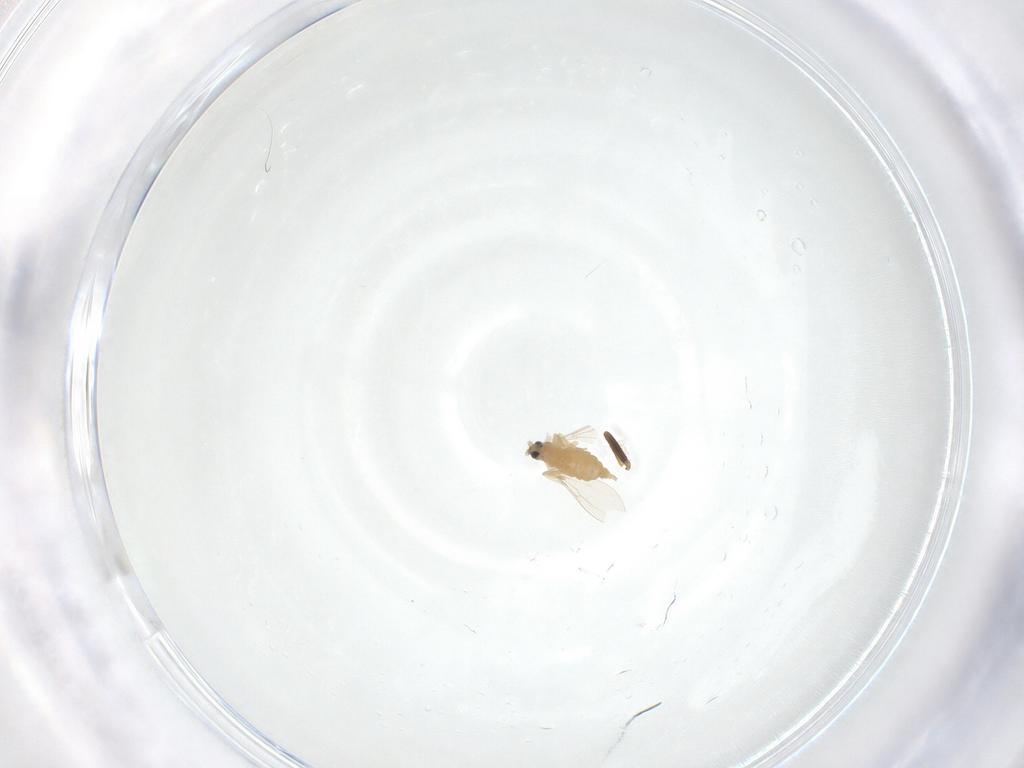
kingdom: Animalia
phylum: Arthropoda
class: Insecta
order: Diptera
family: Cecidomyiidae
